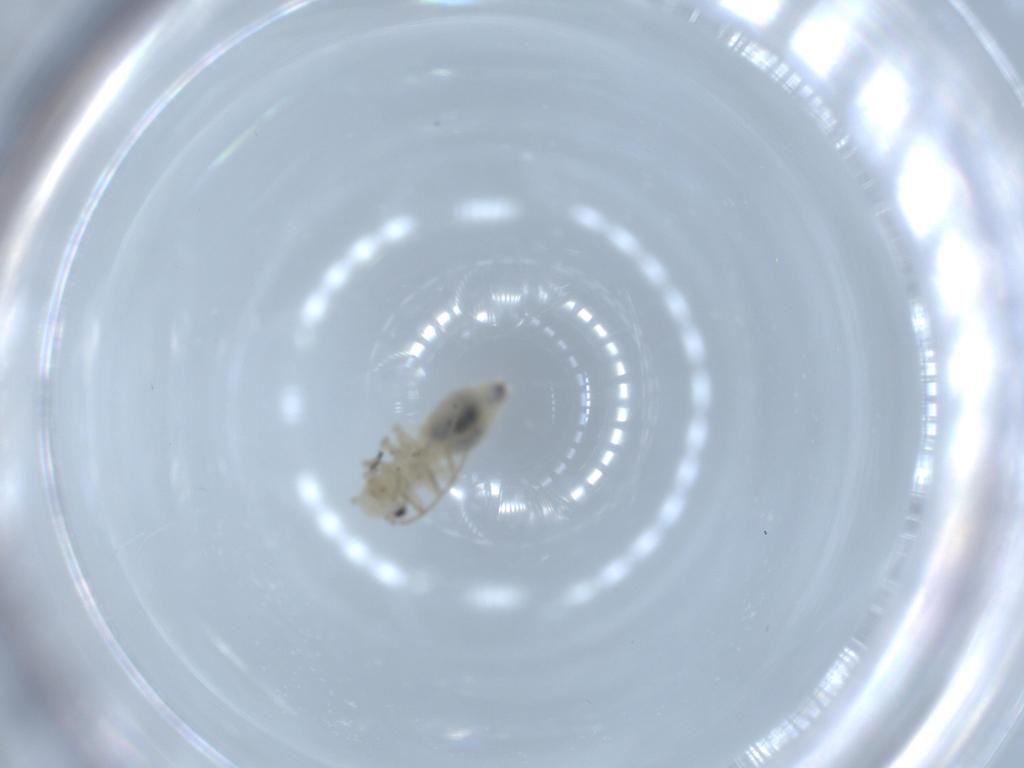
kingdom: Animalia
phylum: Arthropoda
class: Insecta
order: Psocodea
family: Caeciliusidae
